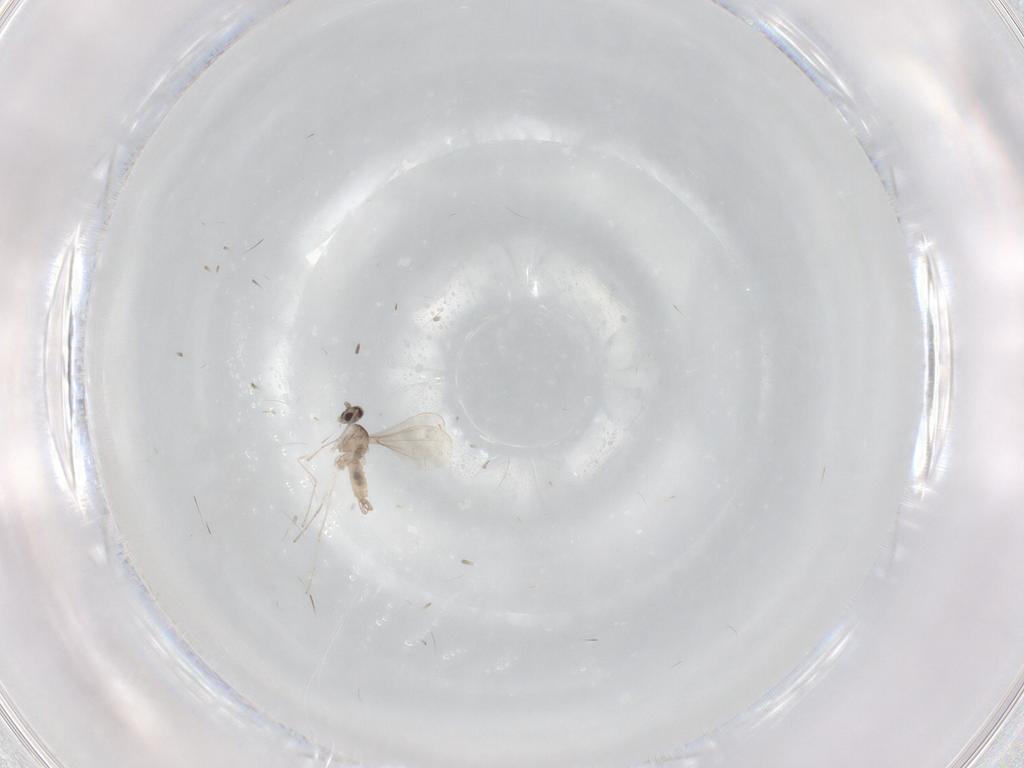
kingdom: Animalia
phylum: Arthropoda
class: Insecta
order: Diptera
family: Cecidomyiidae
